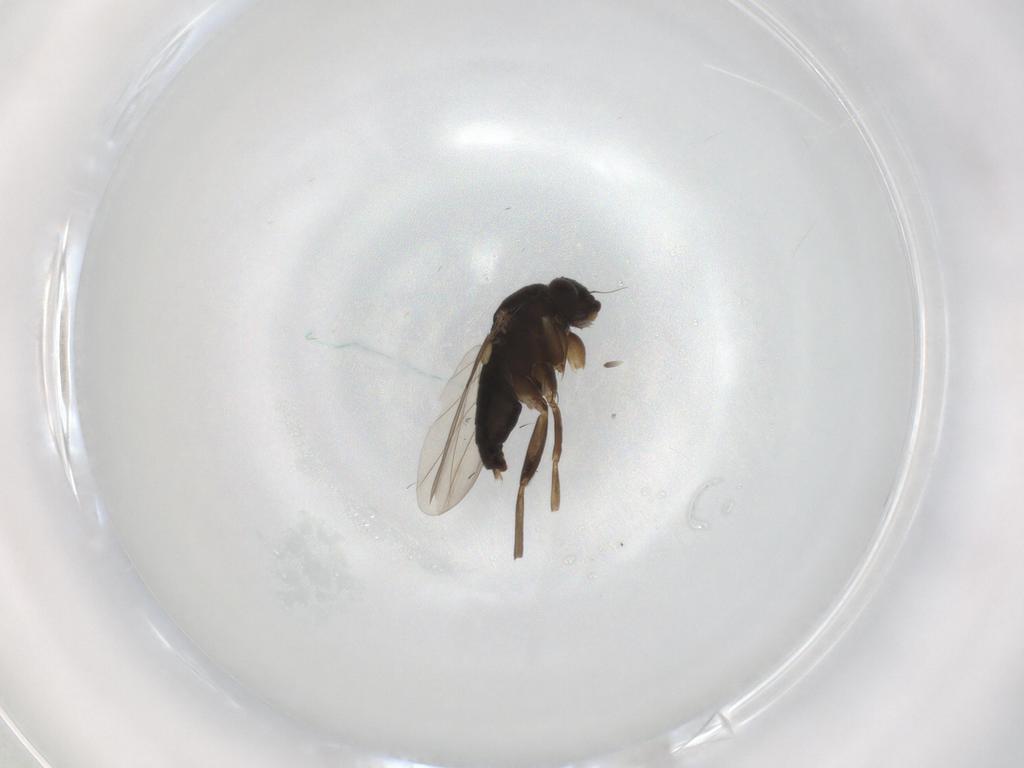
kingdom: Animalia
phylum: Arthropoda
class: Insecta
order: Diptera
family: Phoridae
